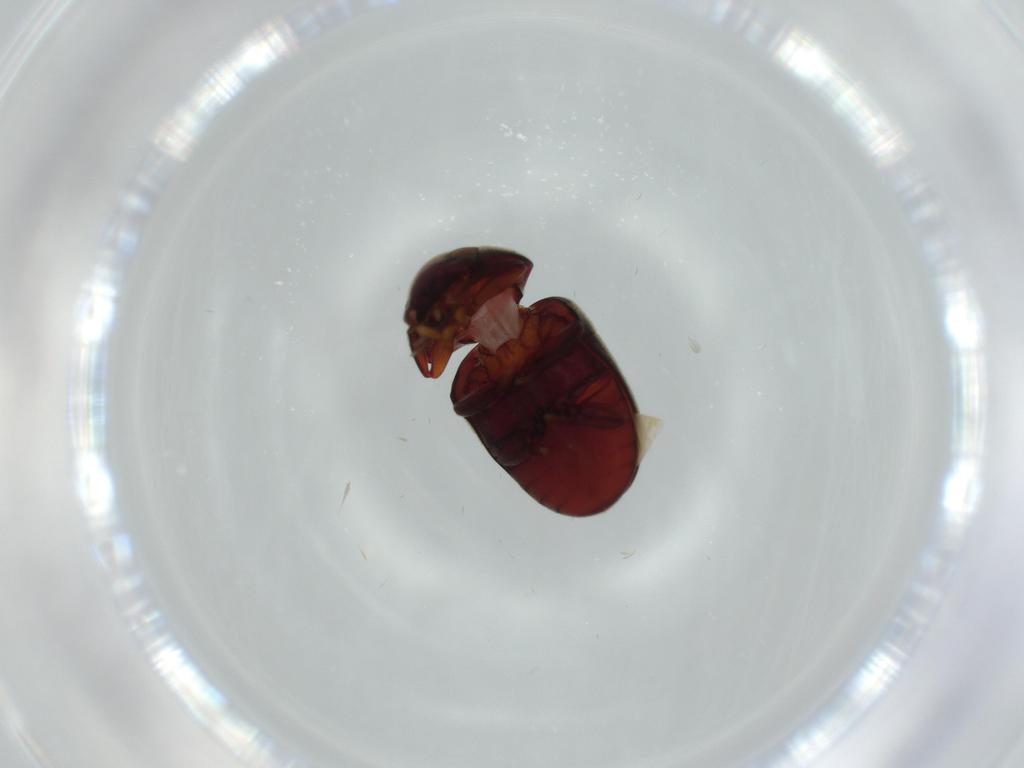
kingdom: Animalia
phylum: Arthropoda
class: Insecta
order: Coleoptera
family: Ptinidae
